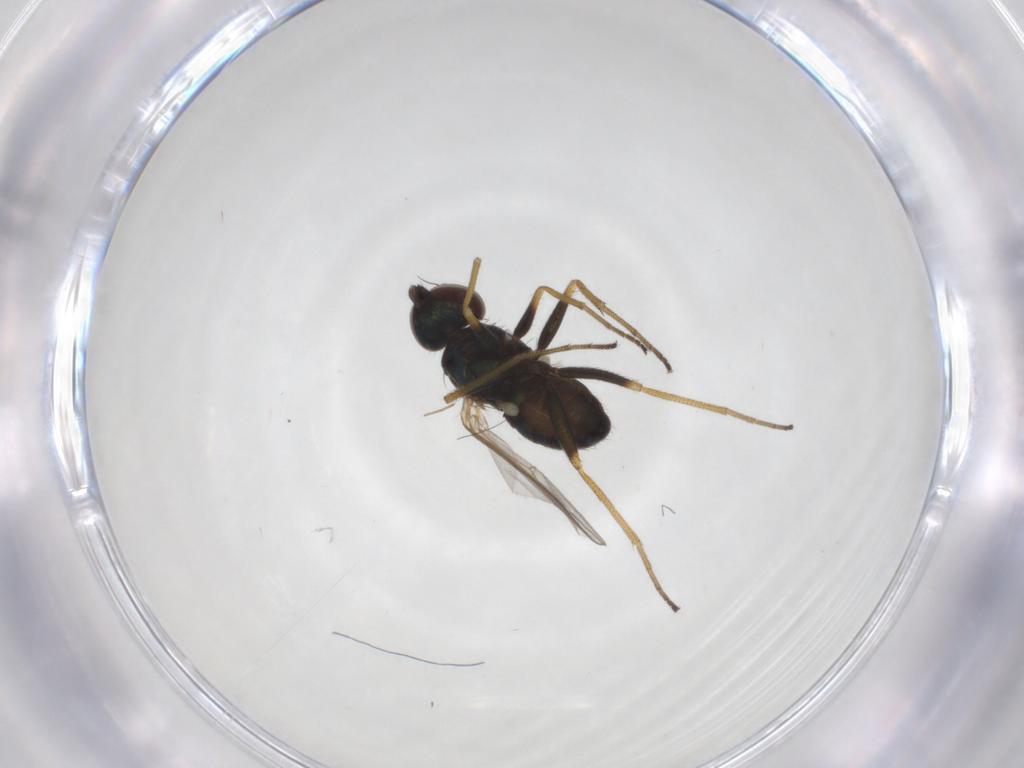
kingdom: Animalia
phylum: Arthropoda
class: Insecta
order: Diptera
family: Dolichopodidae
